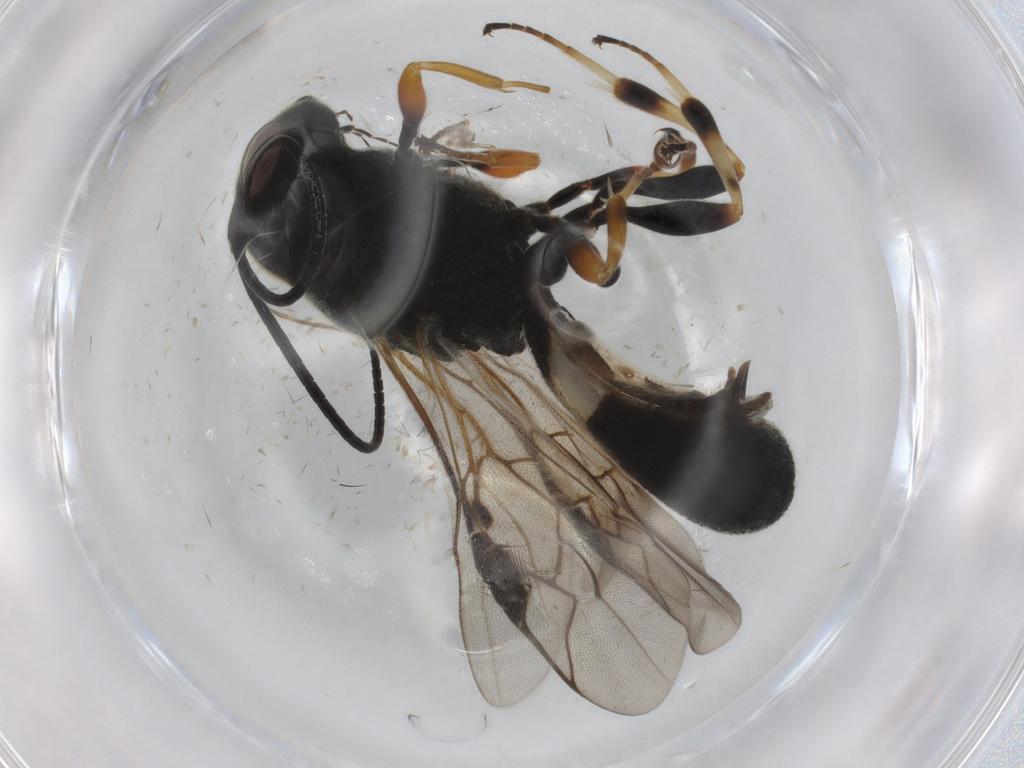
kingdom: Animalia
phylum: Arthropoda
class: Insecta
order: Hymenoptera
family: Braconidae
